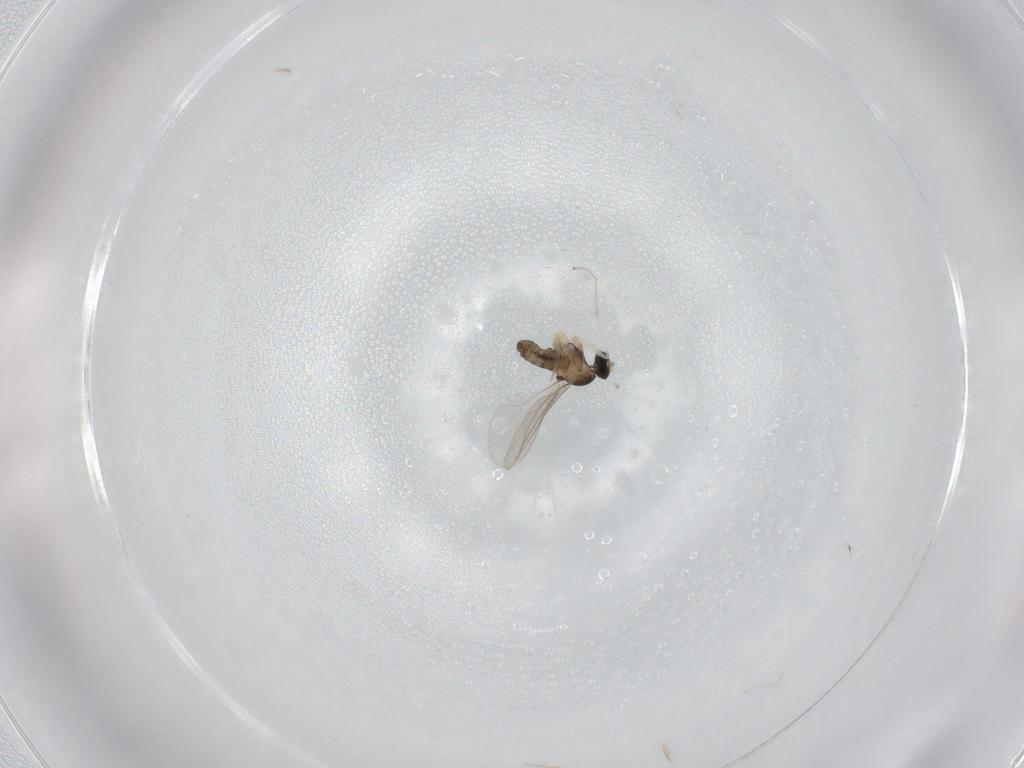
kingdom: Animalia
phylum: Arthropoda
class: Insecta
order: Diptera
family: Cecidomyiidae
